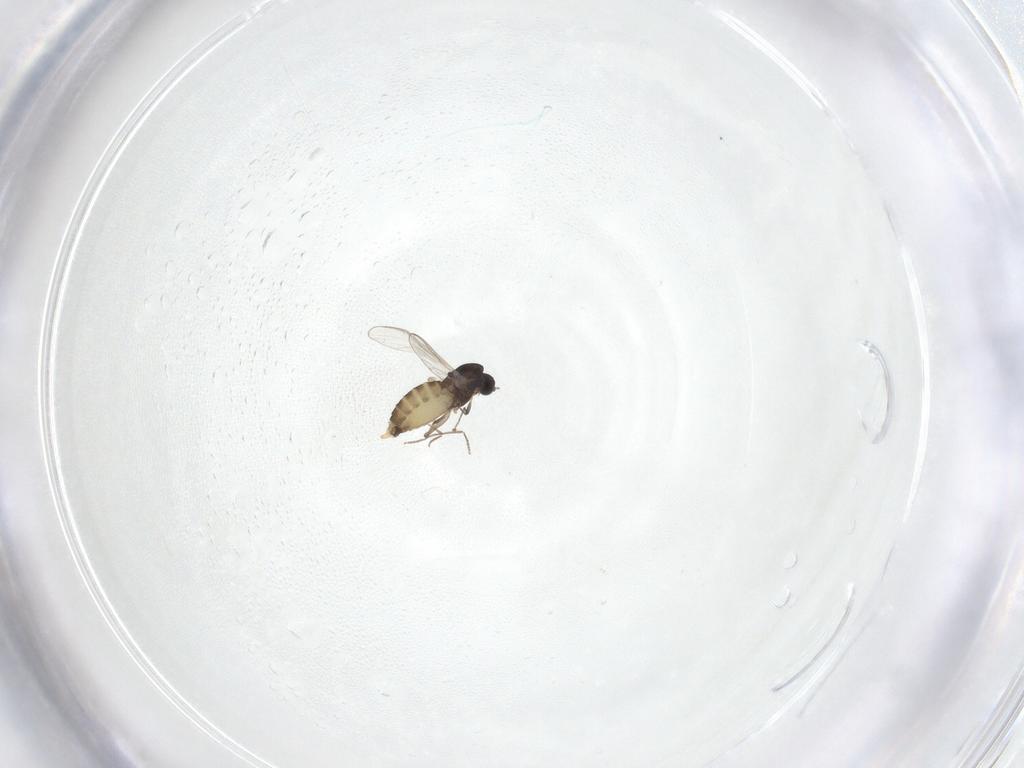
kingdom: Animalia
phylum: Arthropoda
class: Insecta
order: Diptera
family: Chironomidae
